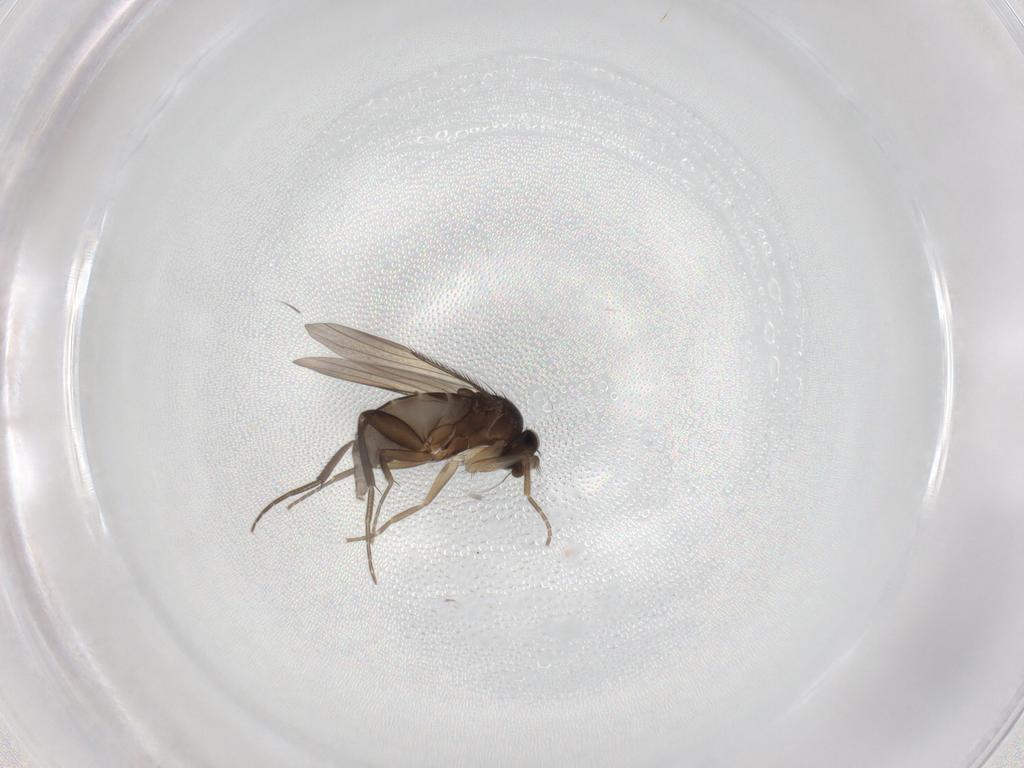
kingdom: Animalia
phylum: Arthropoda
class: Insecta
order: Diptera
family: Phoridae
